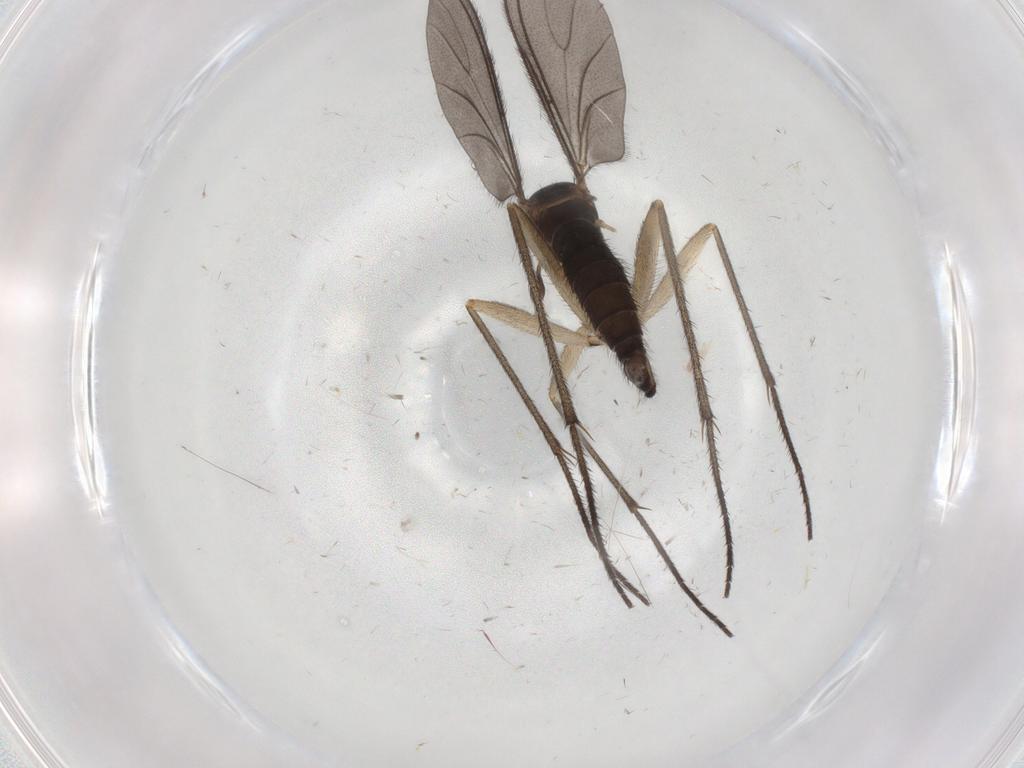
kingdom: Animalia
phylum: Arthropoda
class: Insecta
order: Diptera
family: Sciaridae
